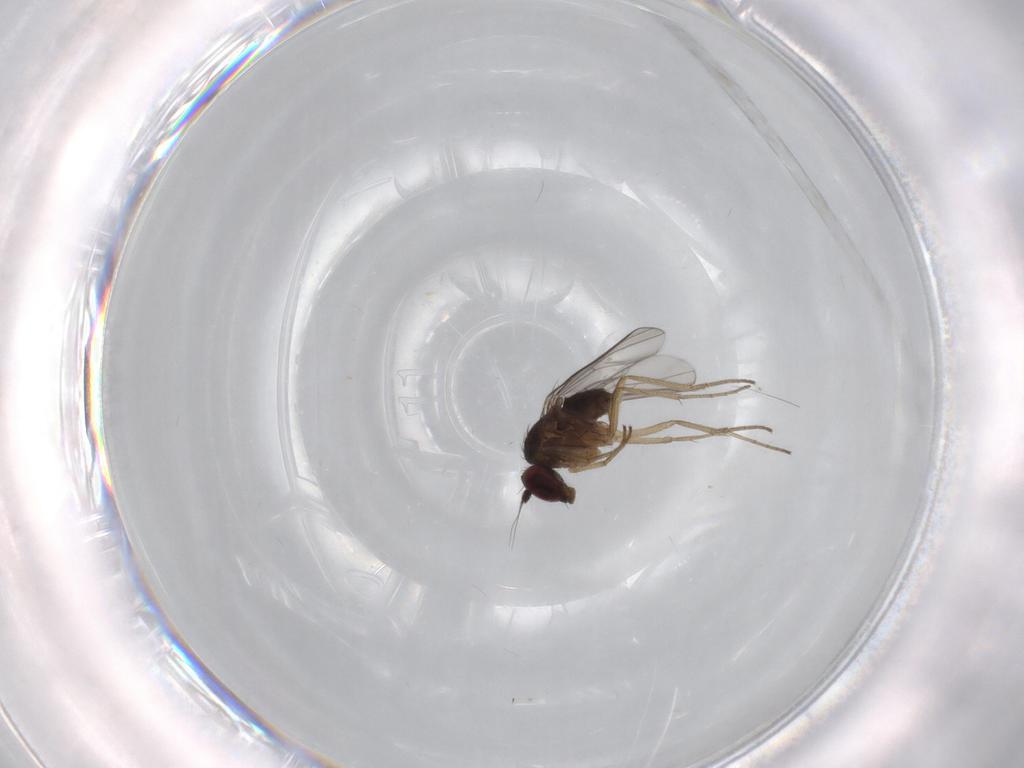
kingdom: Animalia
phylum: Arthropoda
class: Insecta
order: Diptera
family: Dolichopodidae
